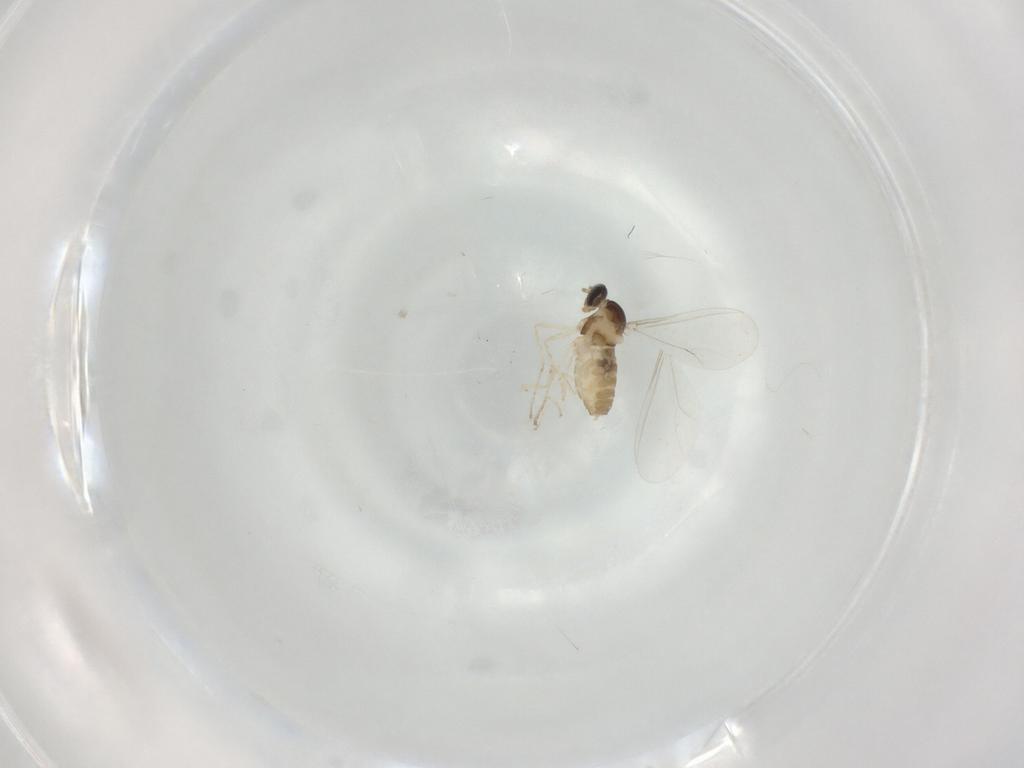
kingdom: Animalia
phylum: Arthropoda
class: Insecta
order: Diptera
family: Cecidomyiidae
